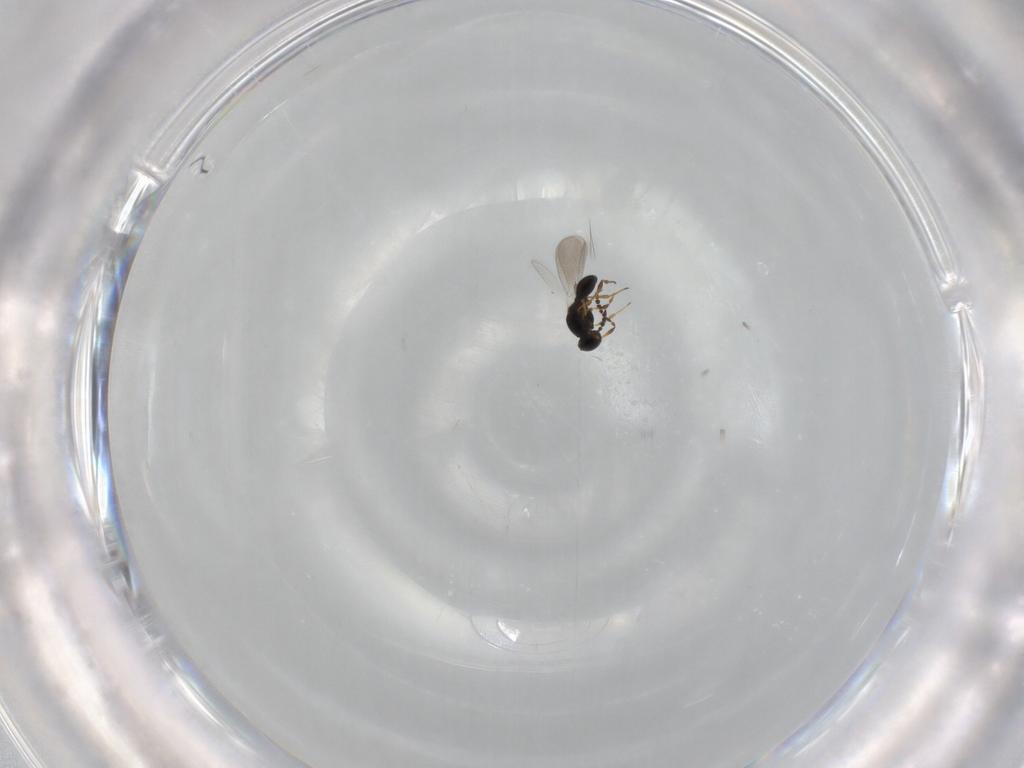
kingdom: Animalia
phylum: Arthropoda
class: Insecta
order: Hymenoptera
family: Platygastridae
